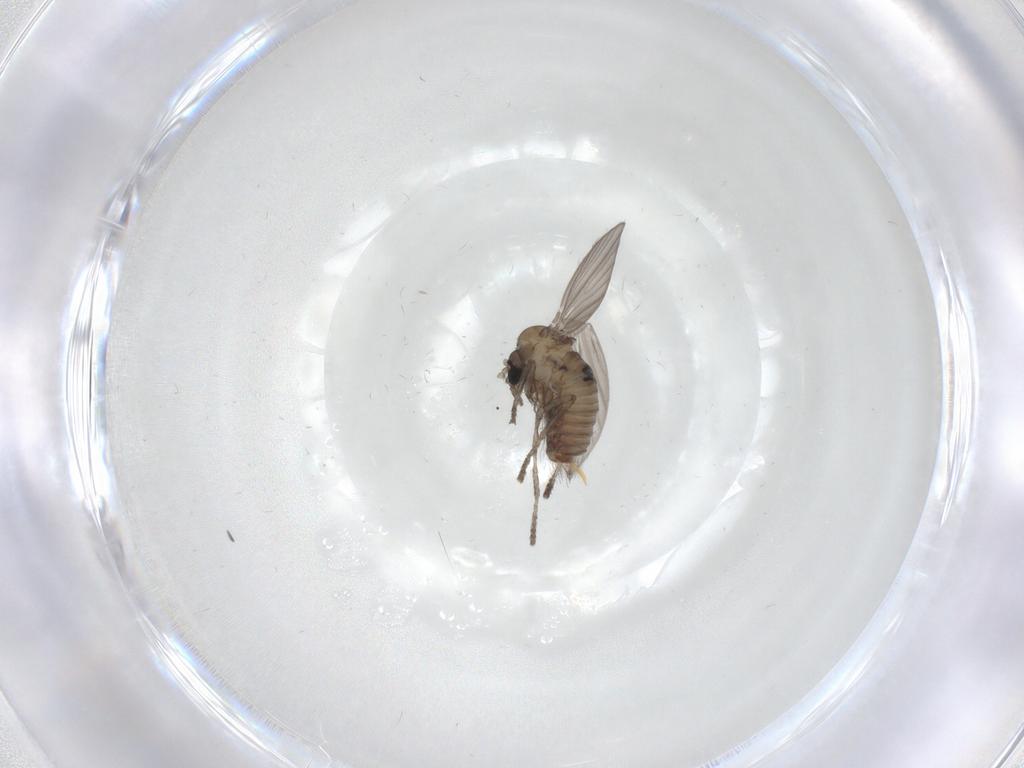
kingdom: Animalia
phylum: Arthropoda
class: Insecta
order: Diptera
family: Psychodidae
